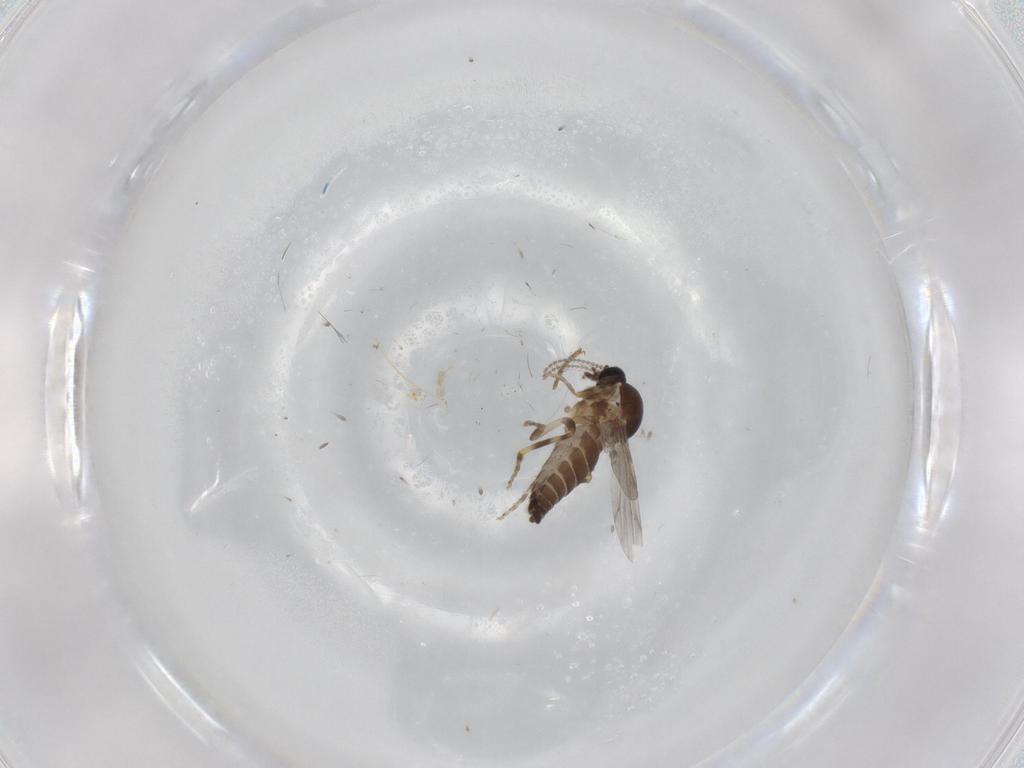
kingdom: Animalia
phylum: Arthropoda
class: Insecta
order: Diptera
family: Ceratopogonidae
